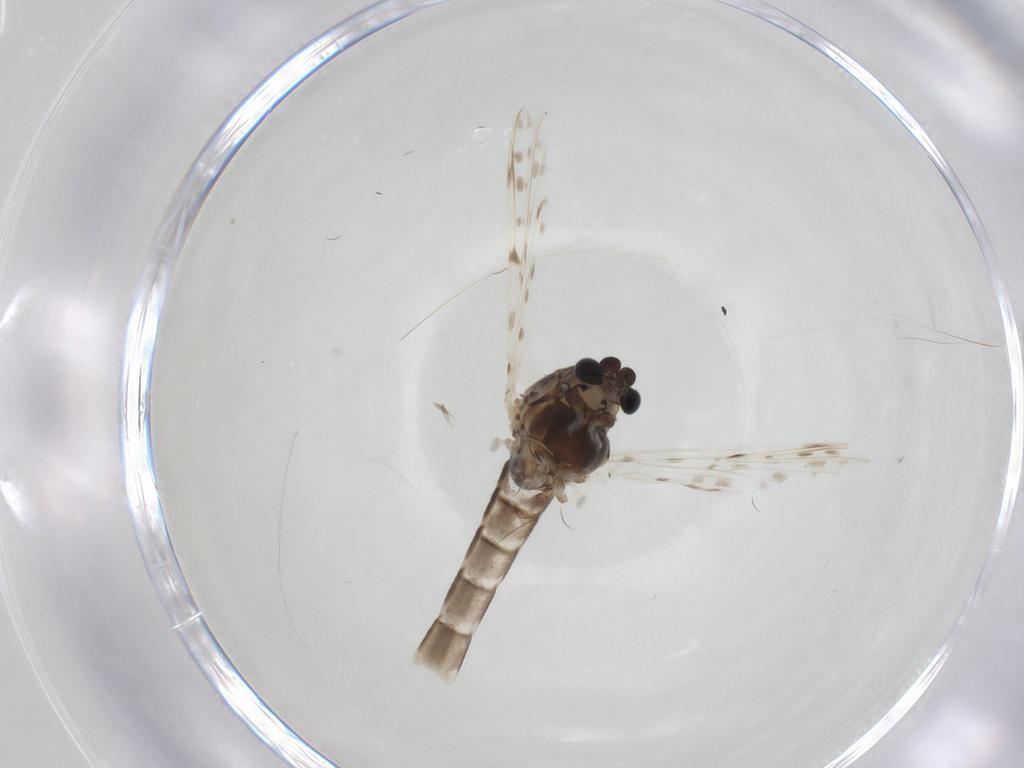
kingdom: Animalia
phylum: Arthropoda
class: Insecta
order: Diptera
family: Chironomidae
